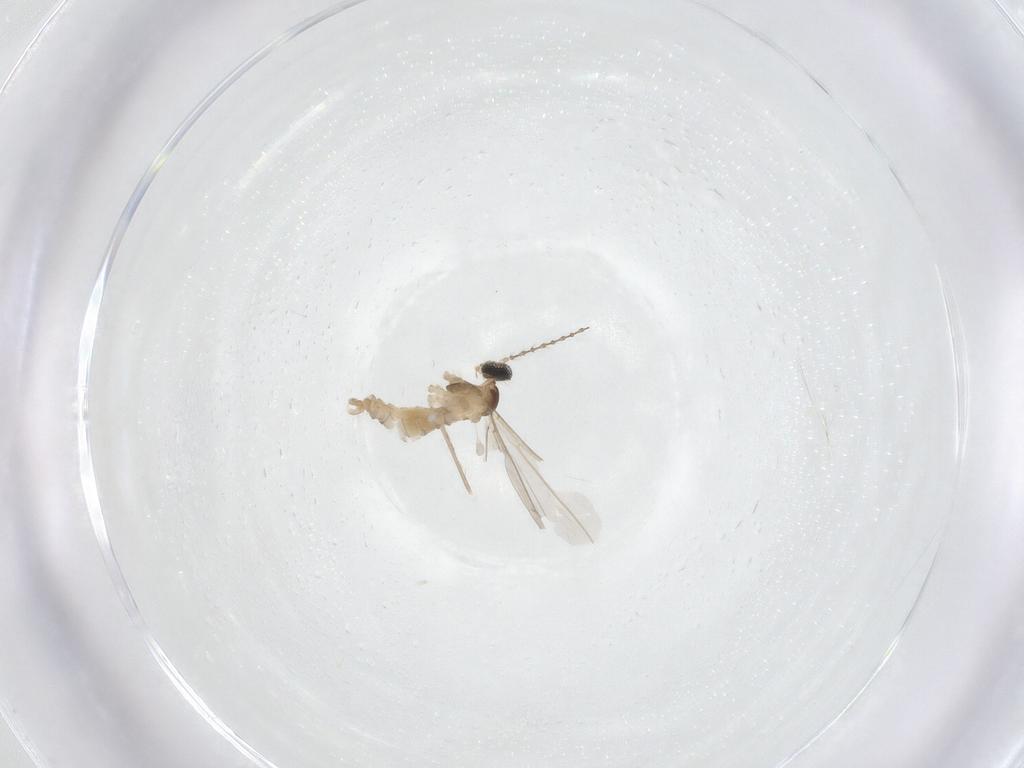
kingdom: Animalia
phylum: Arthropoda
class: Insecta
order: Diptera
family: Cecidomyiidae
